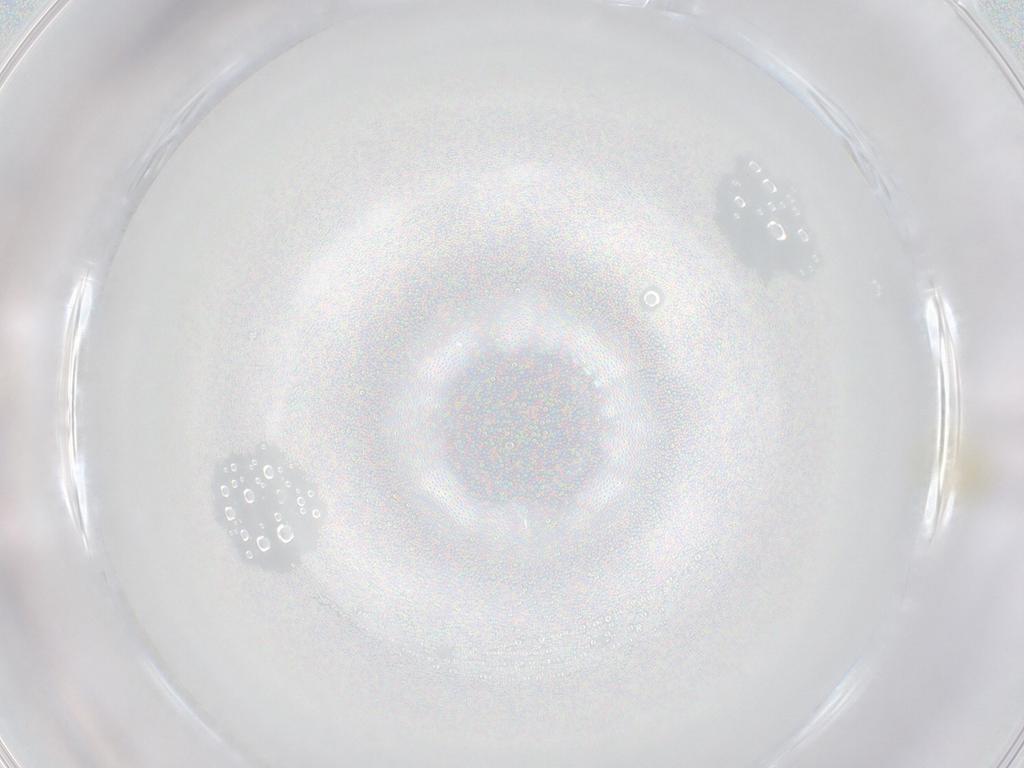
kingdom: Animalia
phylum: Arthropoda
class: Insecta
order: Hemiptera
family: Aleyrodidae
